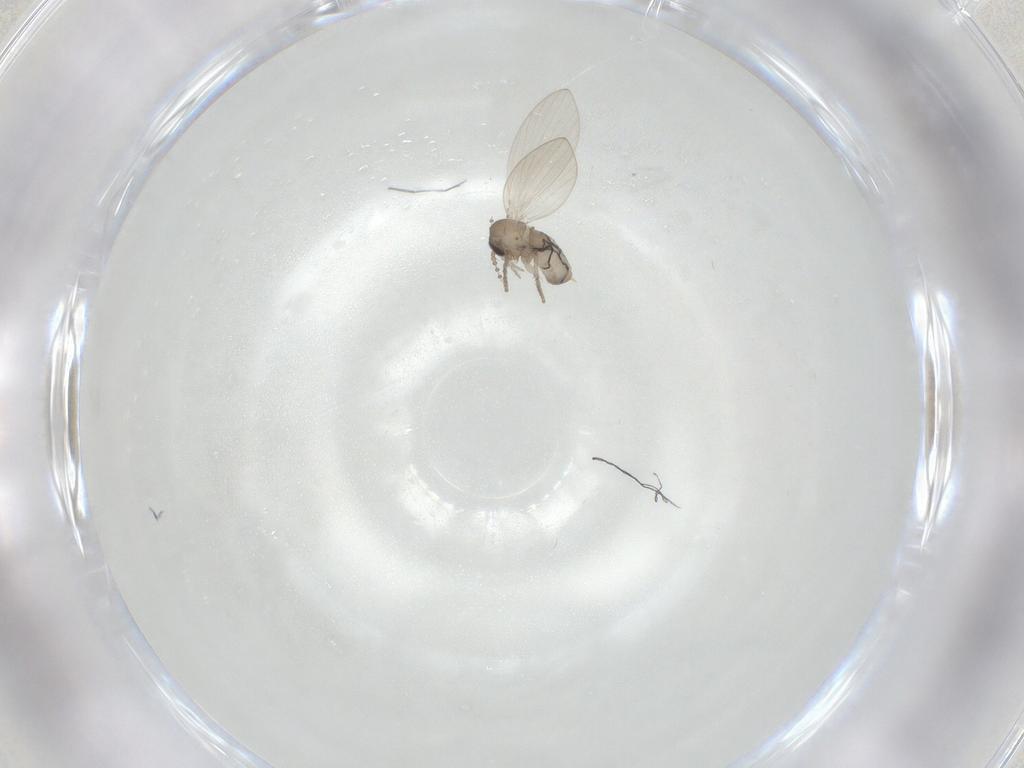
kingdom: Animalia
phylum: Arthropoda
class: Insecta
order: Diptera
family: Psychodidae
